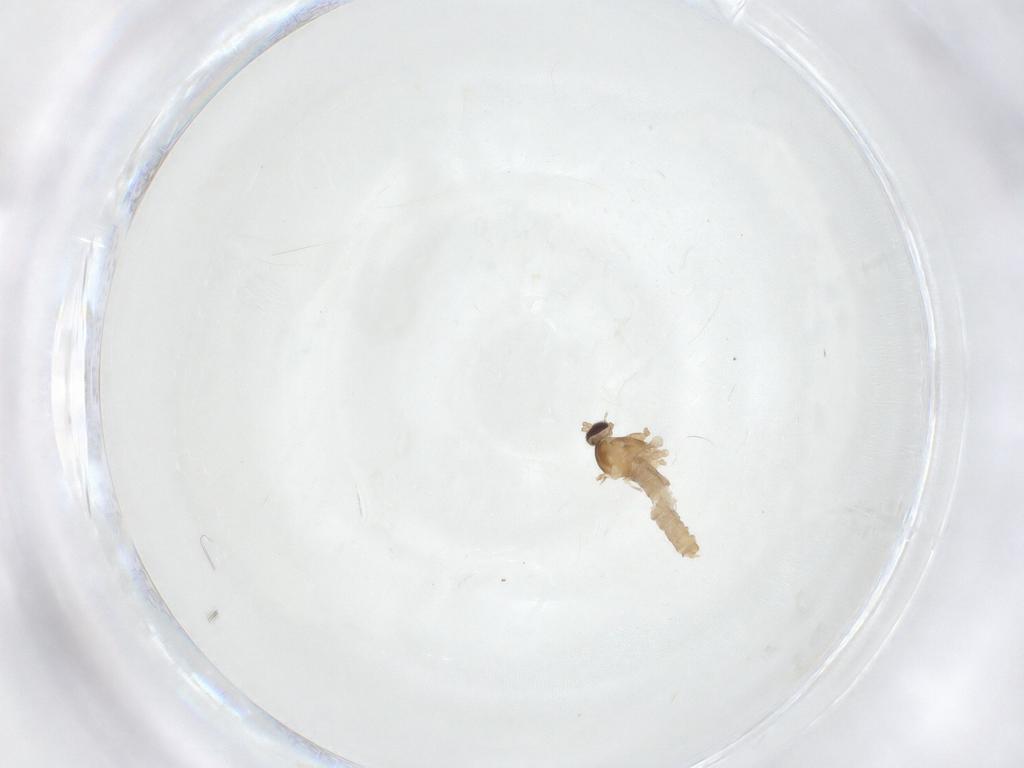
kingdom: Animalia
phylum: Arthropoda
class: Insecta
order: Diptera
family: Cecidomyiidae
